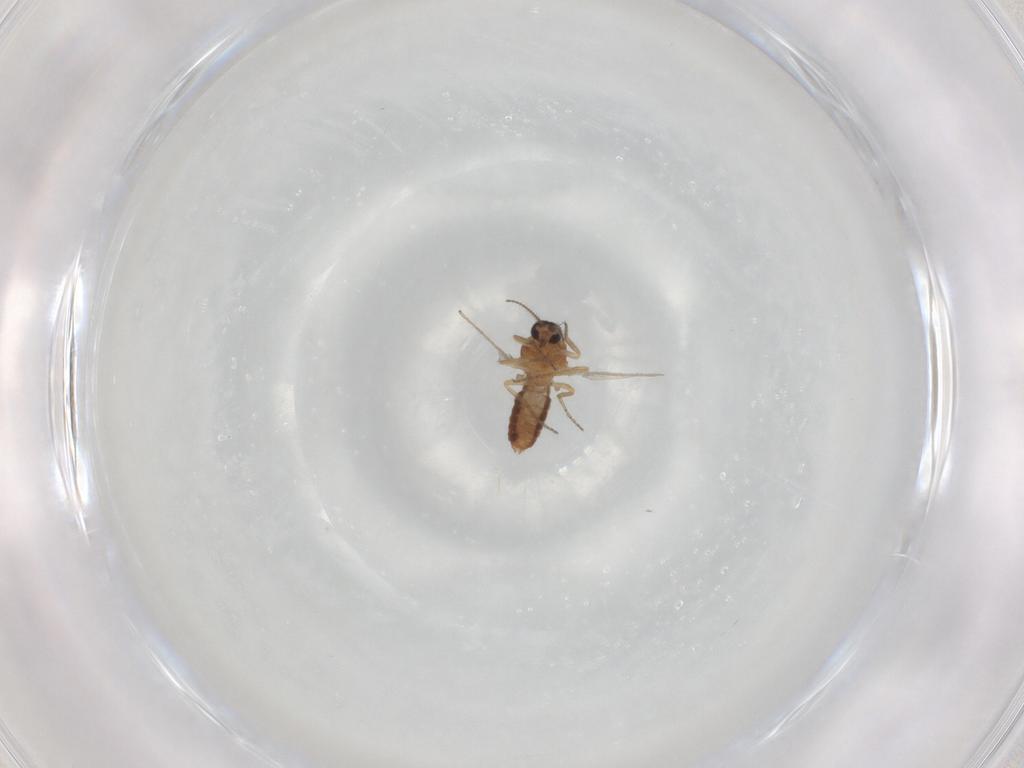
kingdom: Animalia
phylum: Arthropoda
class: Insecta
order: Diptera
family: Ceratopogonidae
